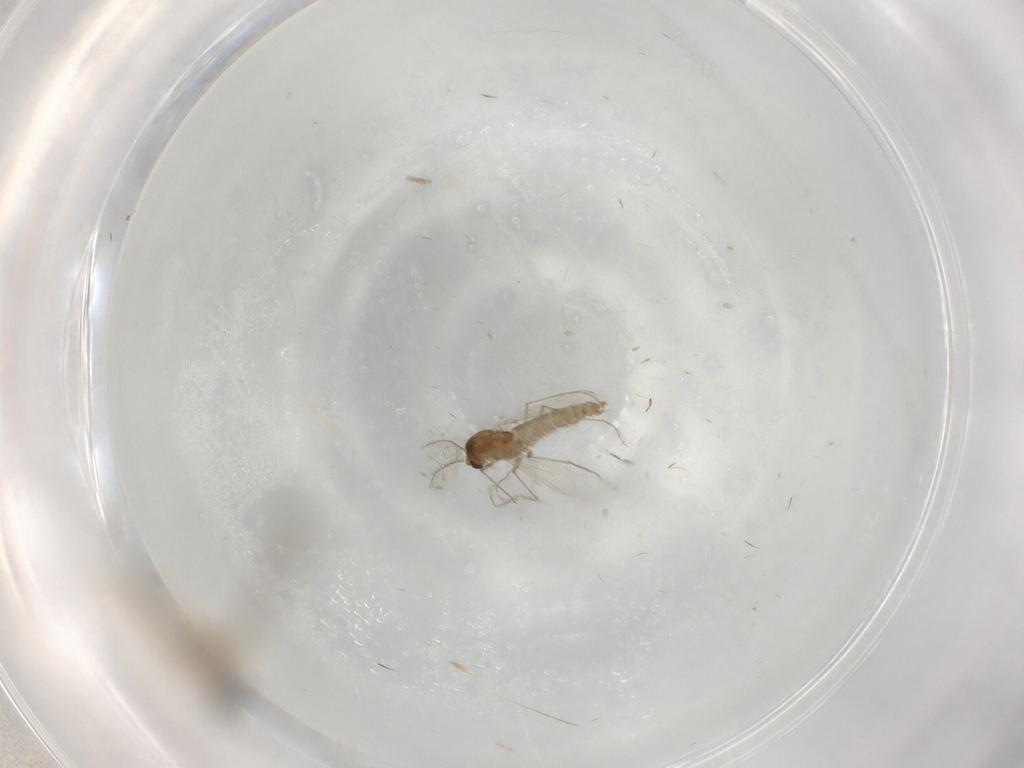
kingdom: Animalia
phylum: Arthropoda
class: Insecta
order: Diptera
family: Cecidomyiidae
